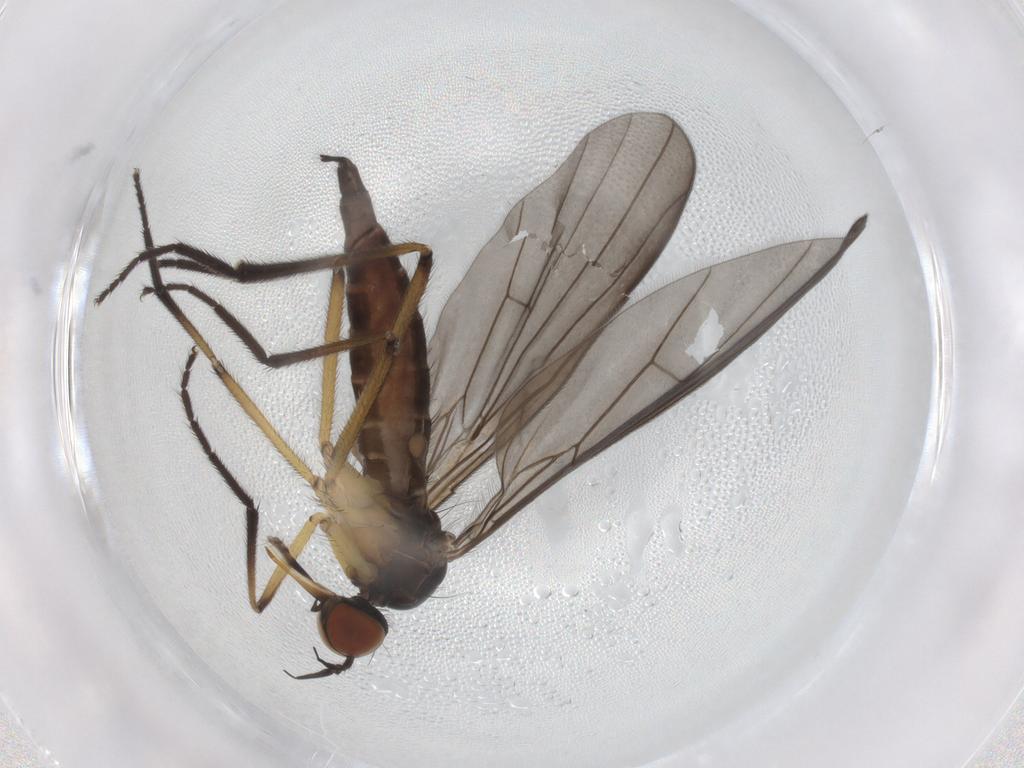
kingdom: Animalia
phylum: Arthropoda
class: Insecta
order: Diptera
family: Empididae
